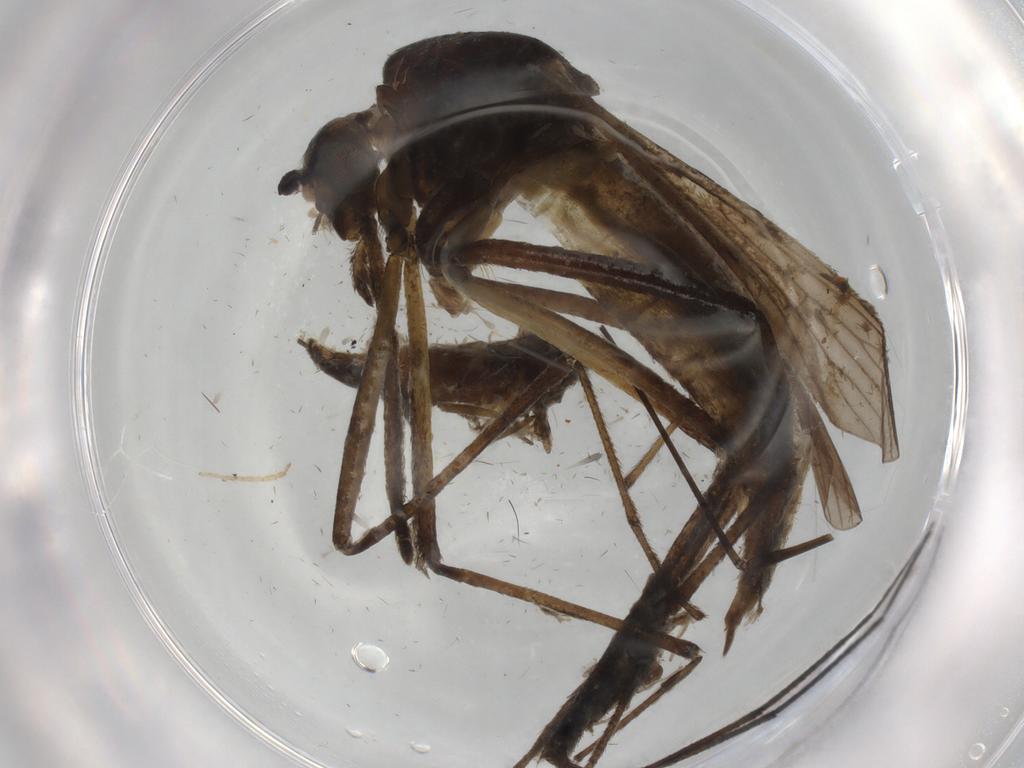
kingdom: Animalia
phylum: Arthropoda
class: Insecta
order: Diptera
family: Sciaridae
